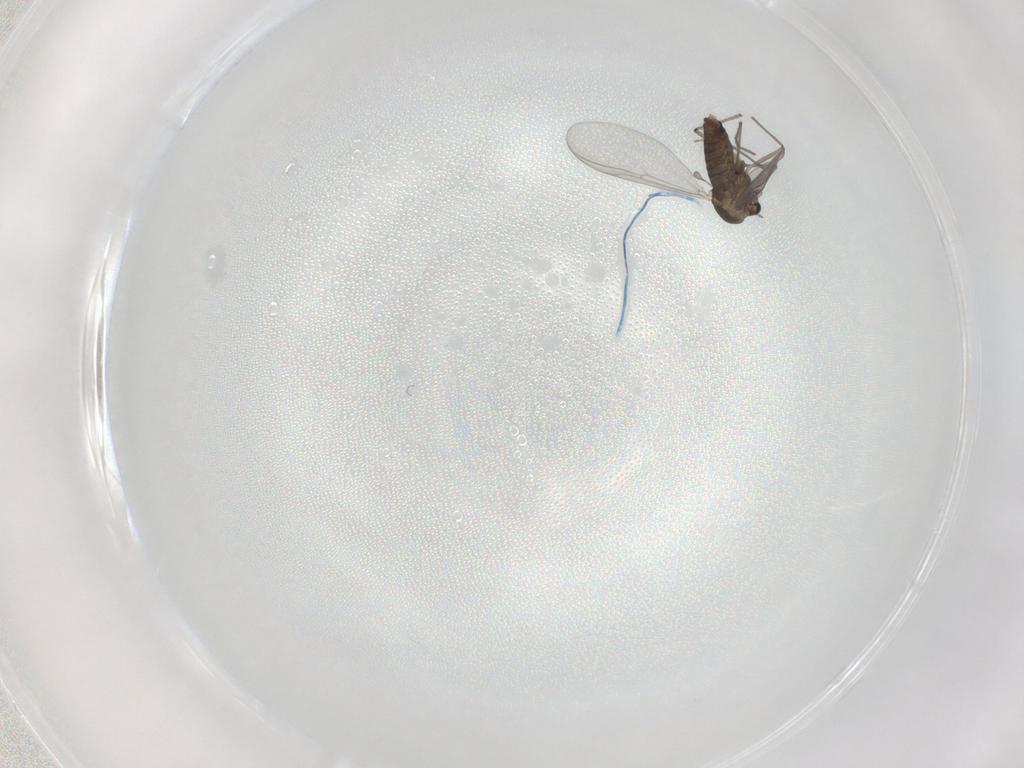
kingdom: Animalia
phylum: Arthropoda
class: Insecta
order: Diptera
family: Chironomidae
